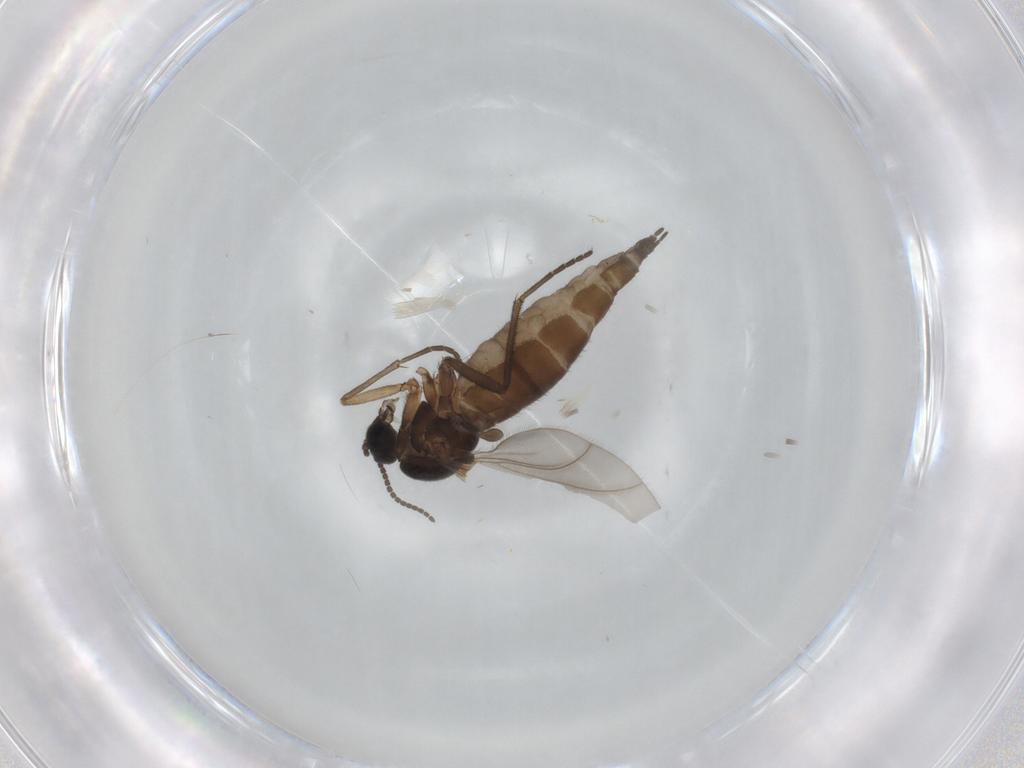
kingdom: Animalia
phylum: Arthropoda
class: Insecta
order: Diptera
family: Sciaridae
